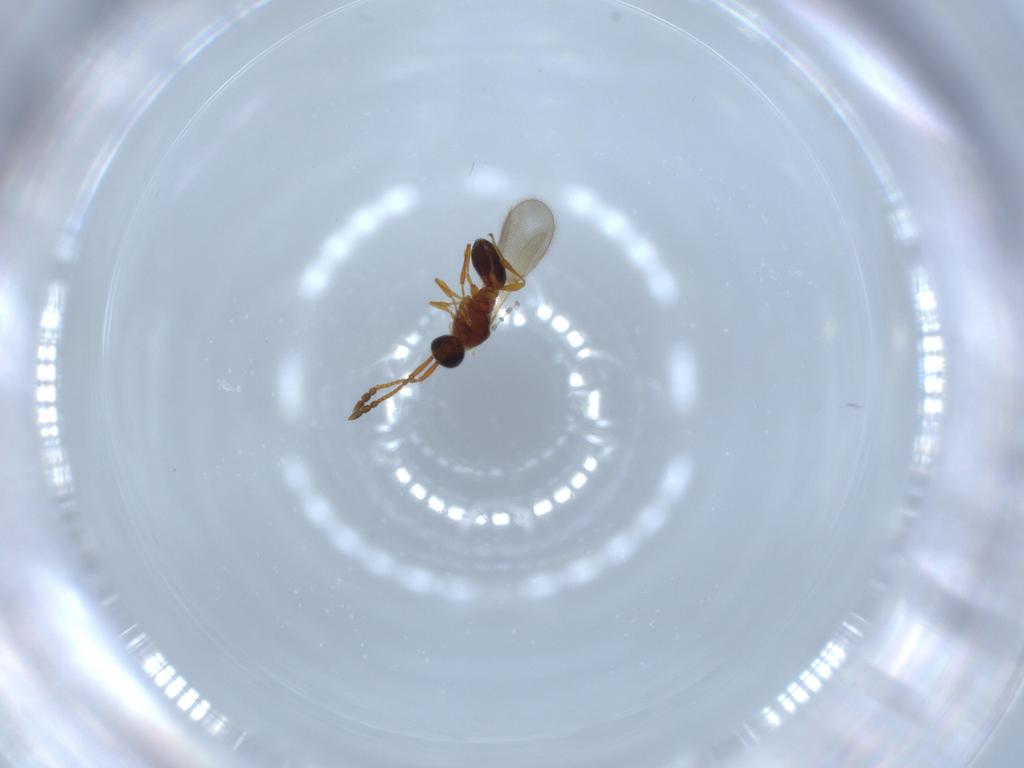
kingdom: Animalia
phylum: Arthropoda
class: Insecta
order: Hymenoptera
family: Diapriidae
